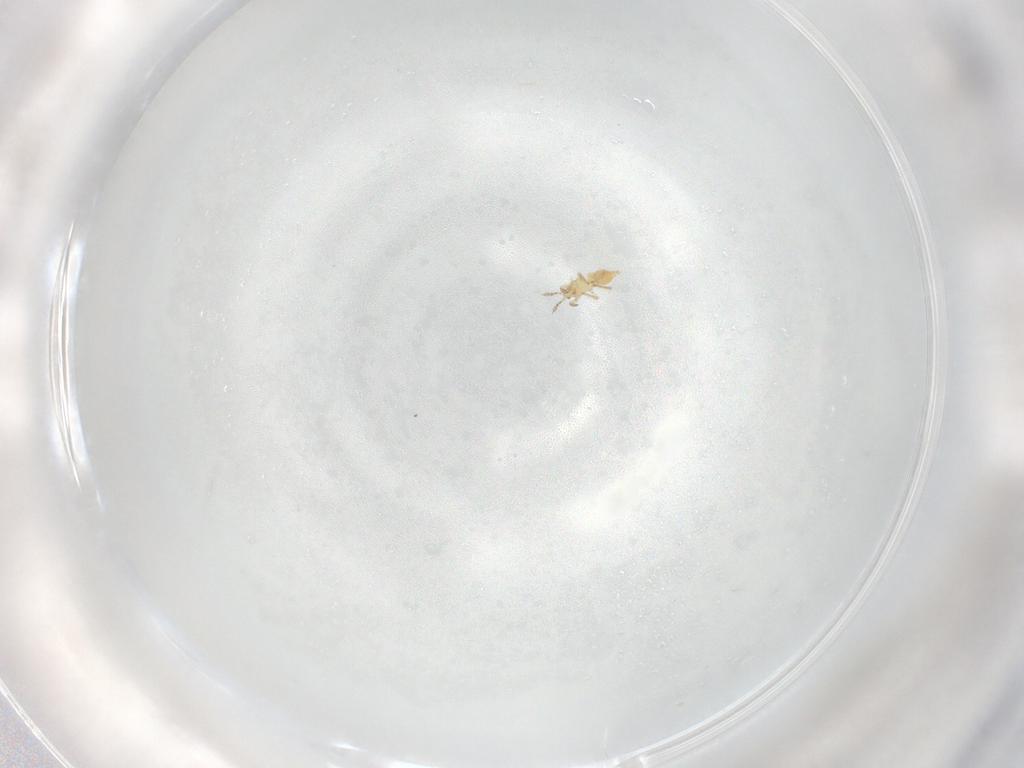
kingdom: Animalia
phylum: Arthropoda
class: Insecta
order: Thysanoptera
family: Aeolothripidae
